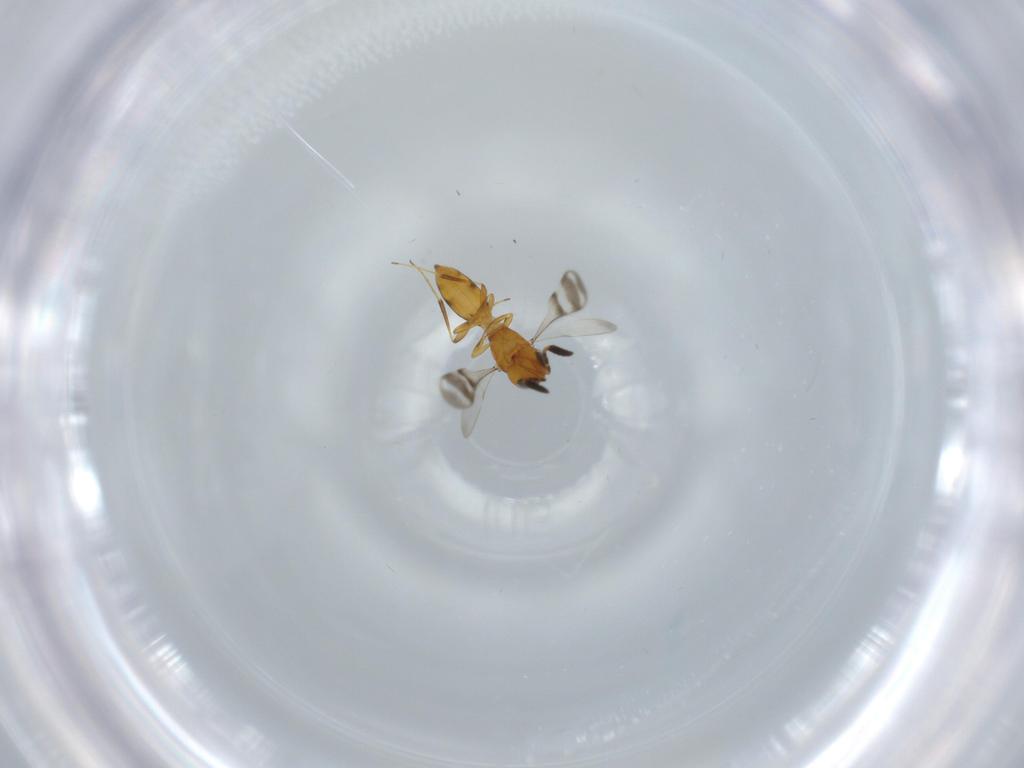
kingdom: Animalia
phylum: Arthropoda
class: Insecta
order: Hymenoptera
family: Scelionidae
